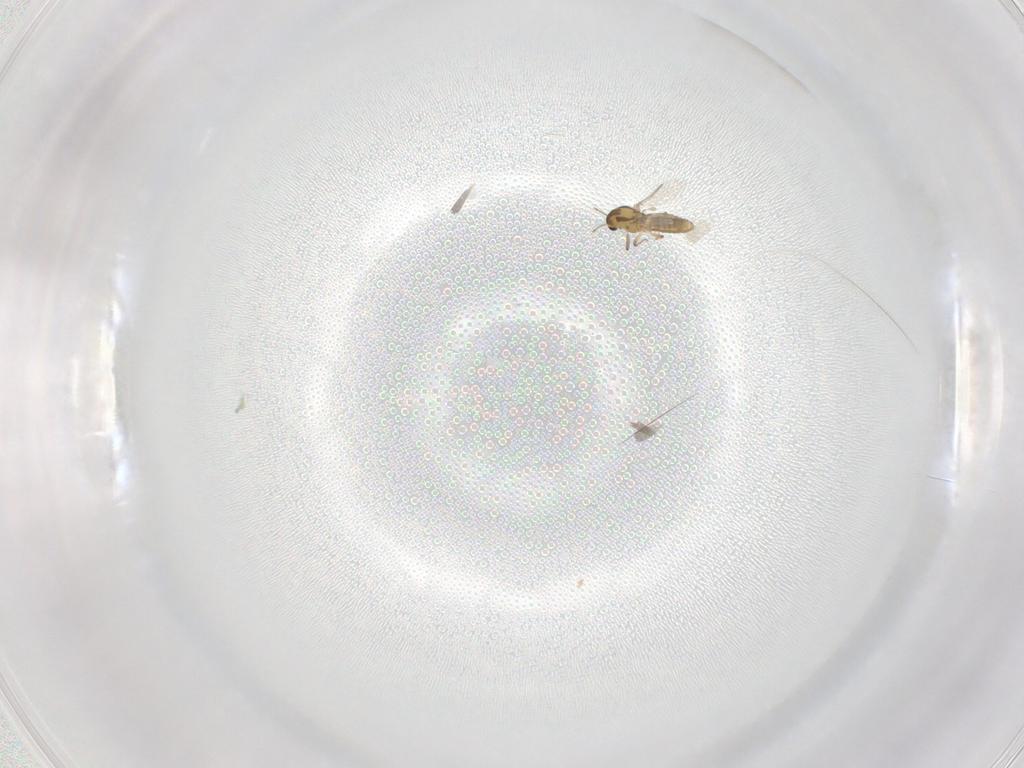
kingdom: Animalia
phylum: Arthropoda
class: Insecta
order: Diptera
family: Chironomidae
